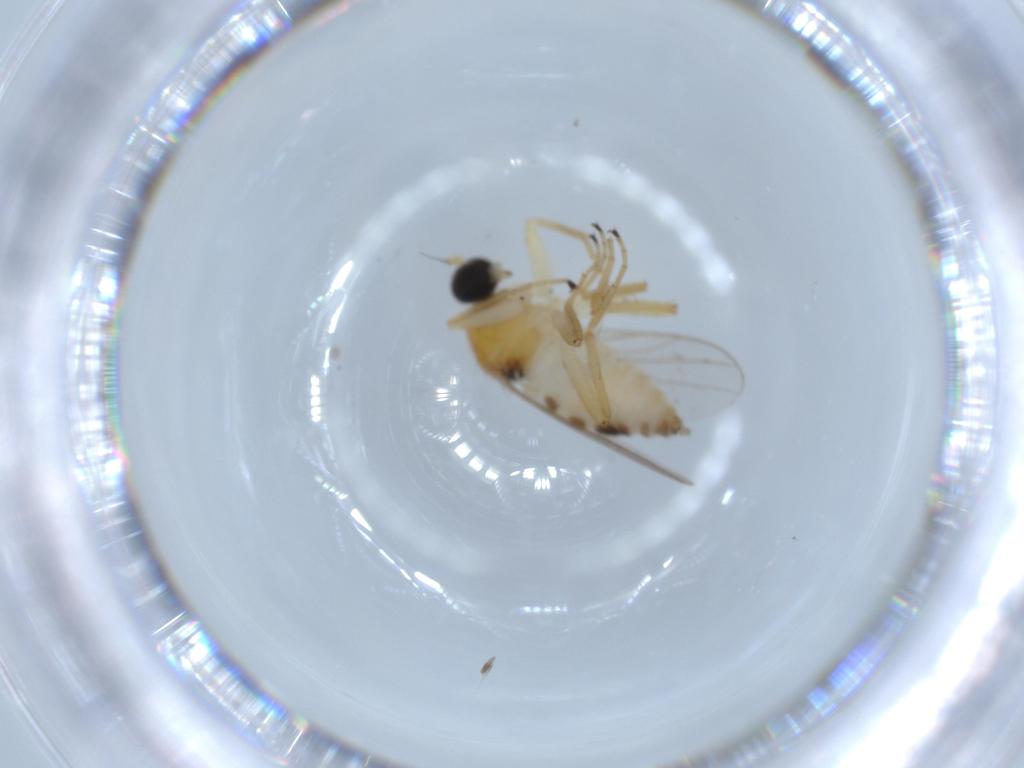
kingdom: Animalia
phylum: Arthropoda
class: Insecta
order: Diptera
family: Hybotidae
